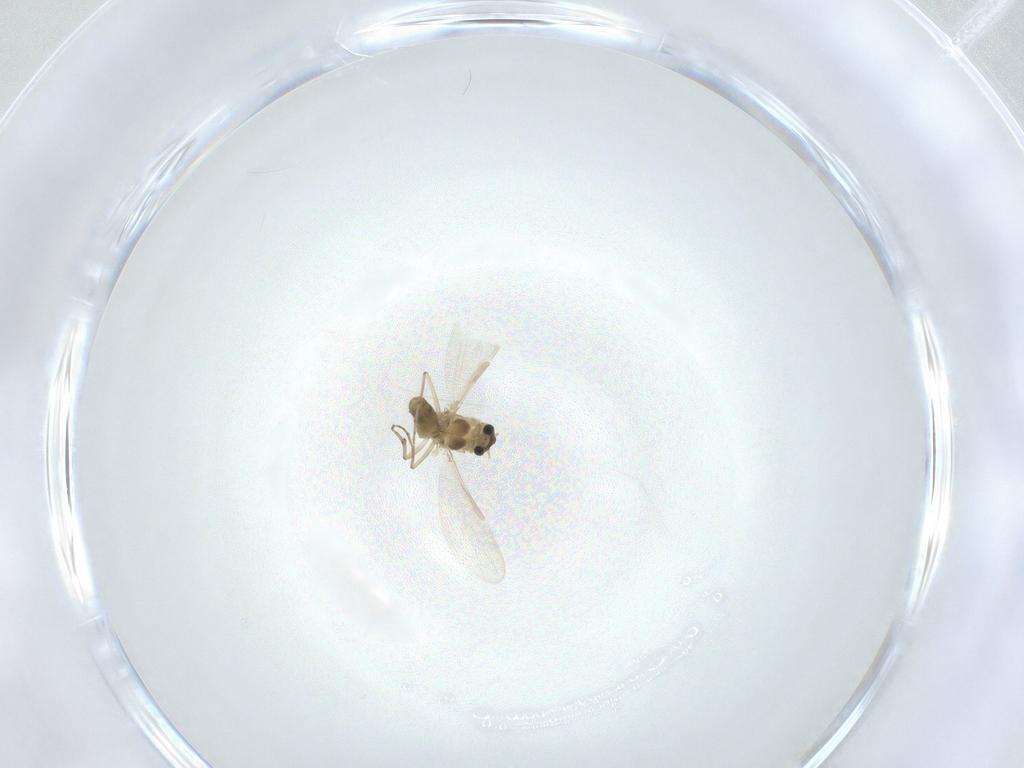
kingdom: Animalia
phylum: Arthropoda
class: Insecta
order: Diptera
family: Chironomidae
